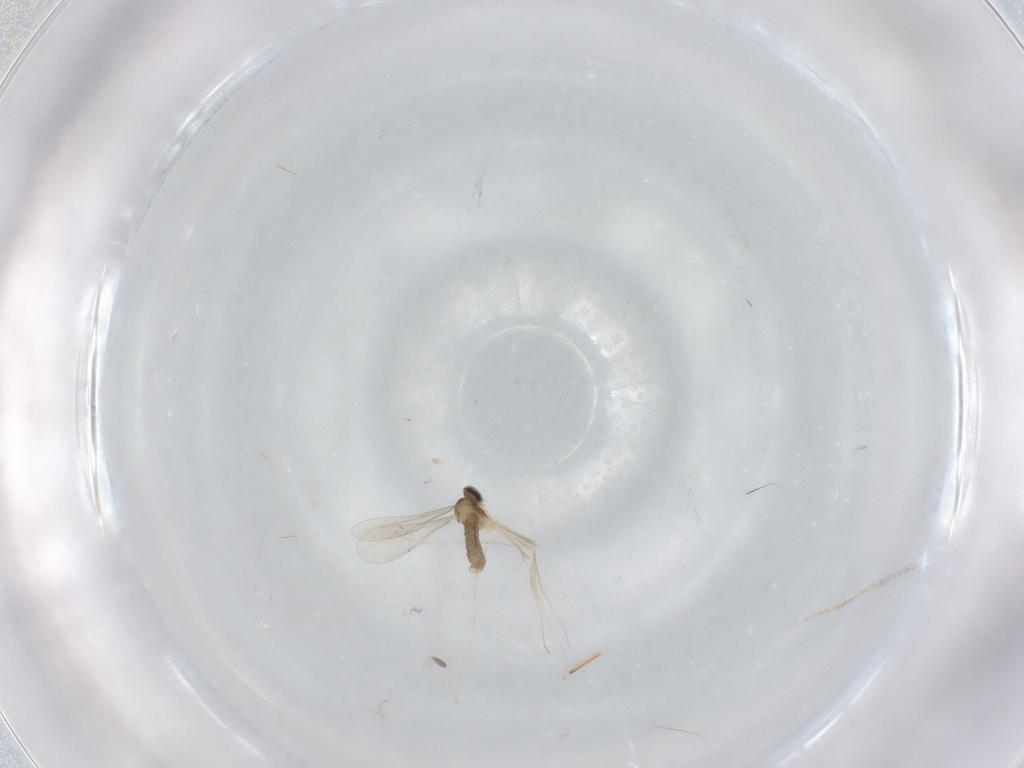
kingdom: Animalia
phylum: Arthropoda
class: Insecta
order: Diptera
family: Cecidomyiidae
